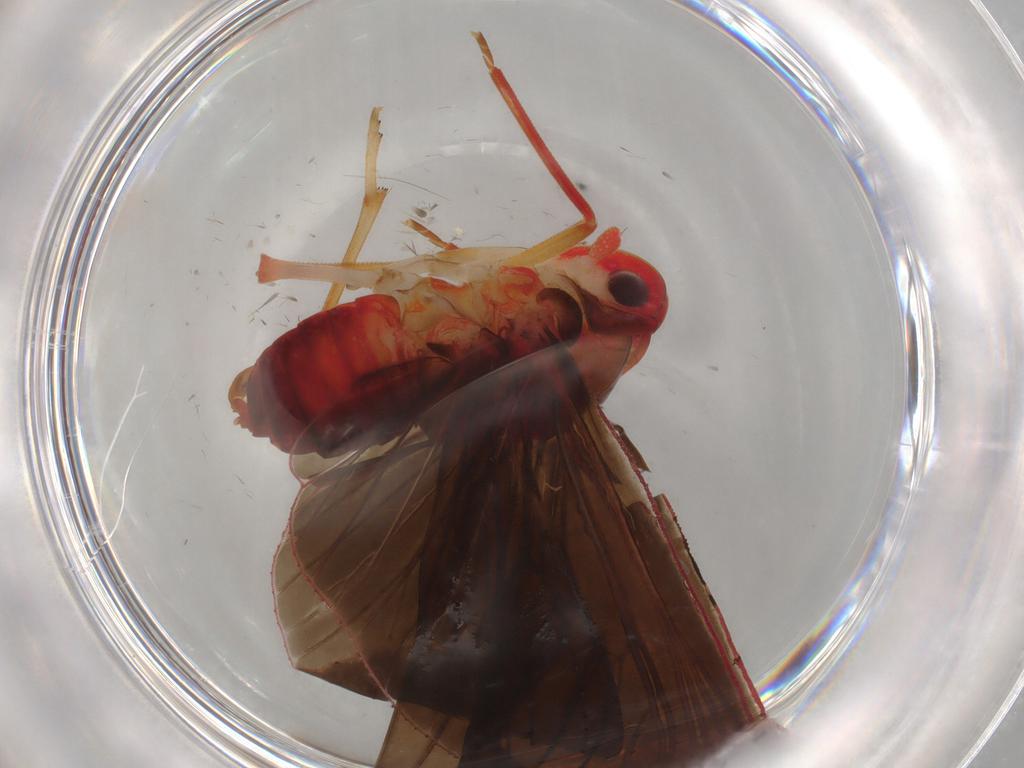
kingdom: Animalia
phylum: Arthropoda
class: Insecta
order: Hemiptera
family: Derbidae
